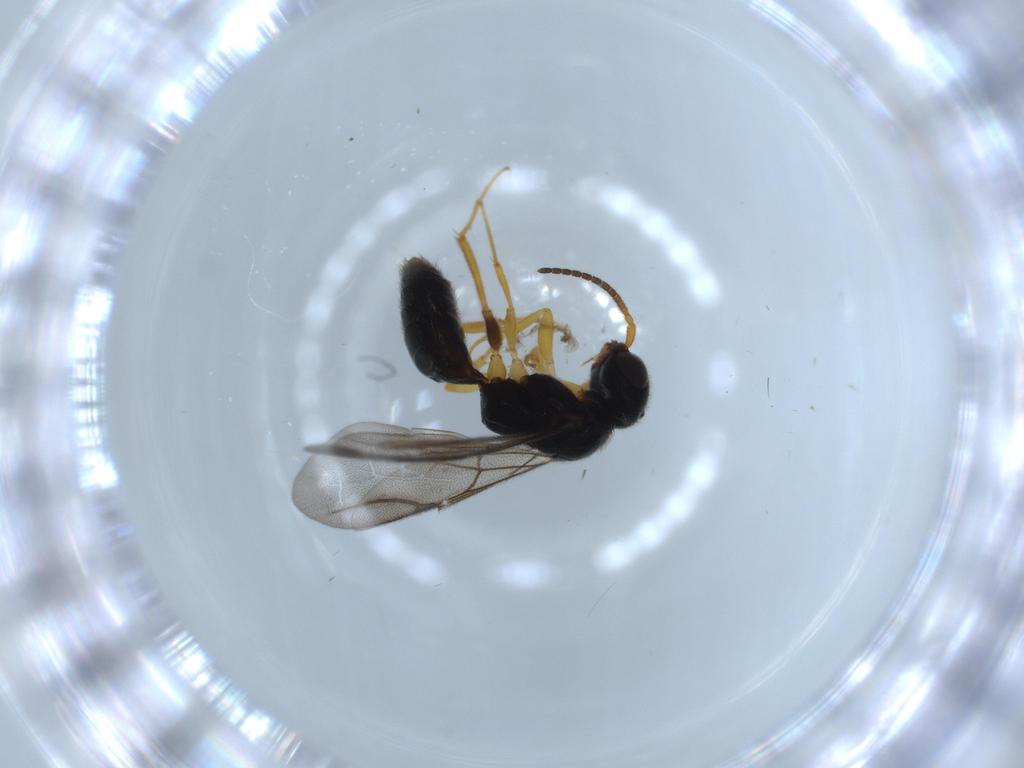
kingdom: Animalia
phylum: Arthropoda
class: Insecta
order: Hymenoptera
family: Bethylidae
